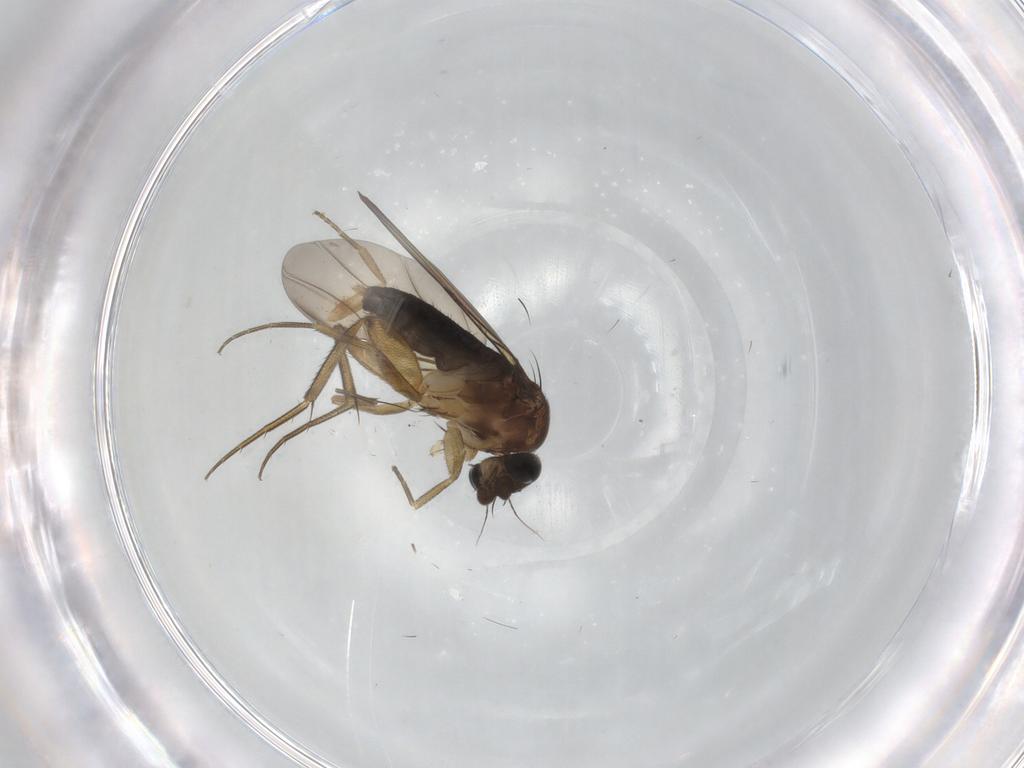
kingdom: Animalia
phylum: Arthropoda
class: Insecta
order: Diptera
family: Phoridae
